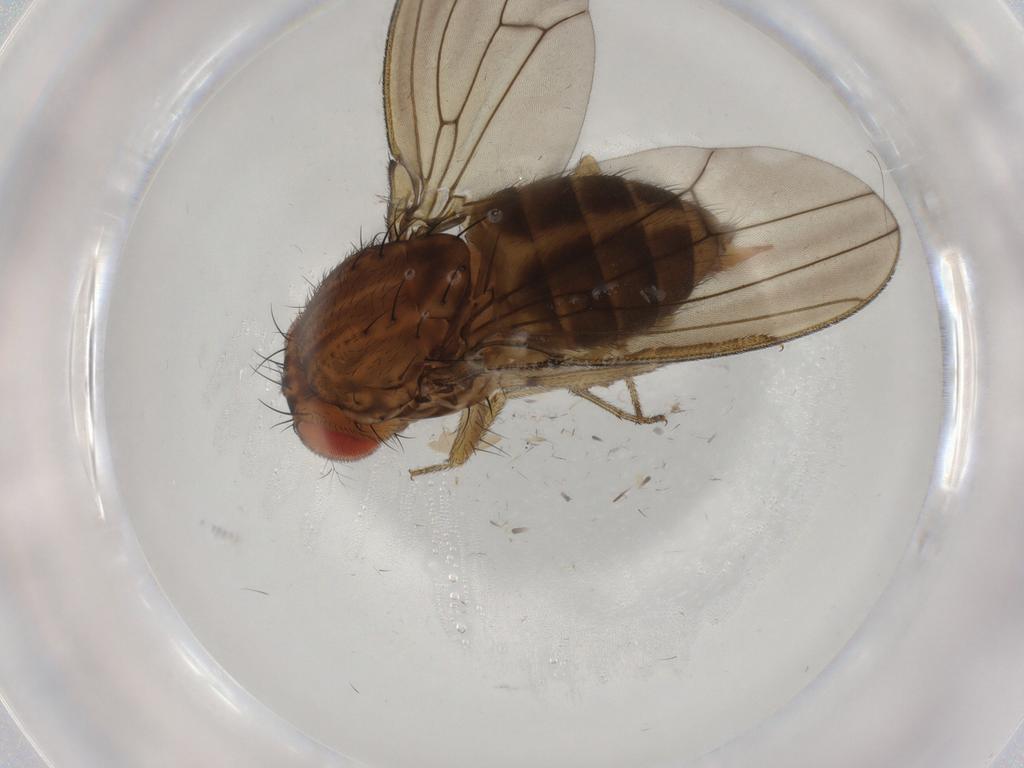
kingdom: Animalia
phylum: Arthropoda
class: Insecta
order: Diptera
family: Drosophilidae
